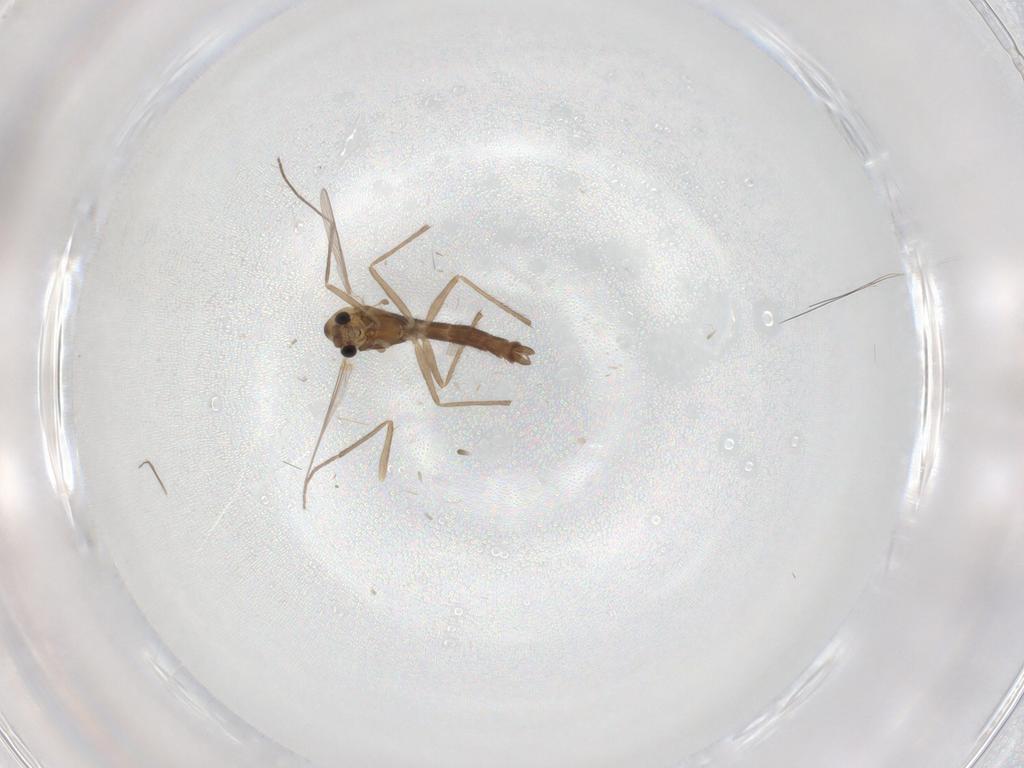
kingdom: Animalia
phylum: Arthropoda
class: Insecta
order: Diptera
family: Chironomidae
